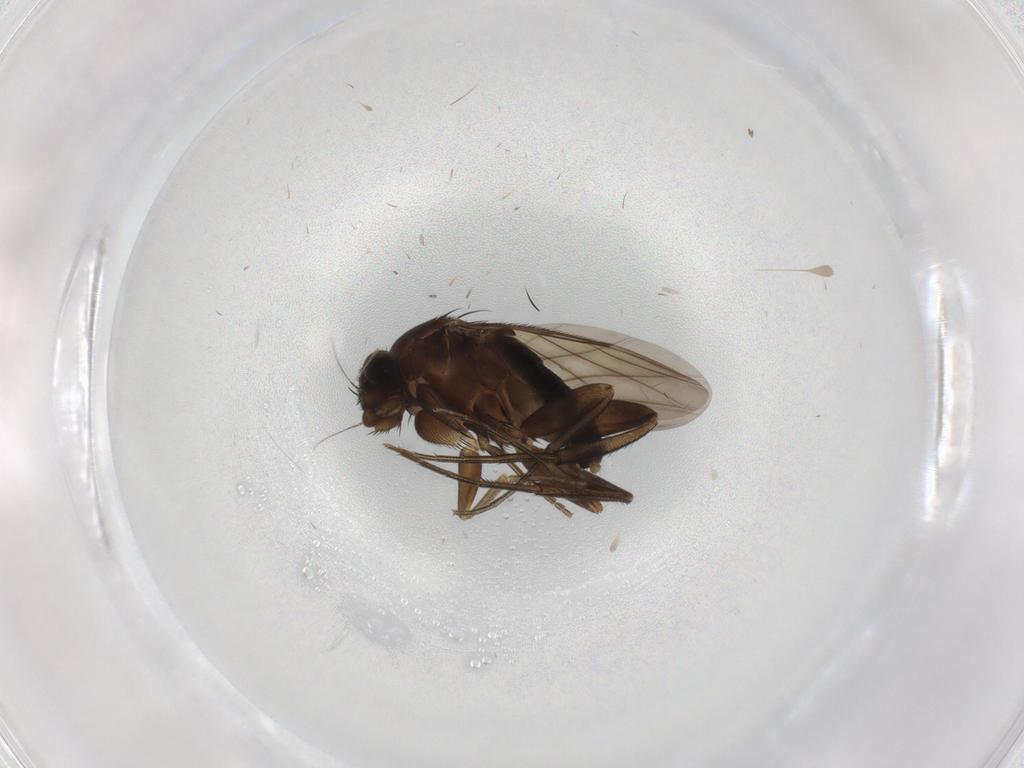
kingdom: Animalia
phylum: Arthropoda
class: Insecta
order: Diptera
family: Phoridae
